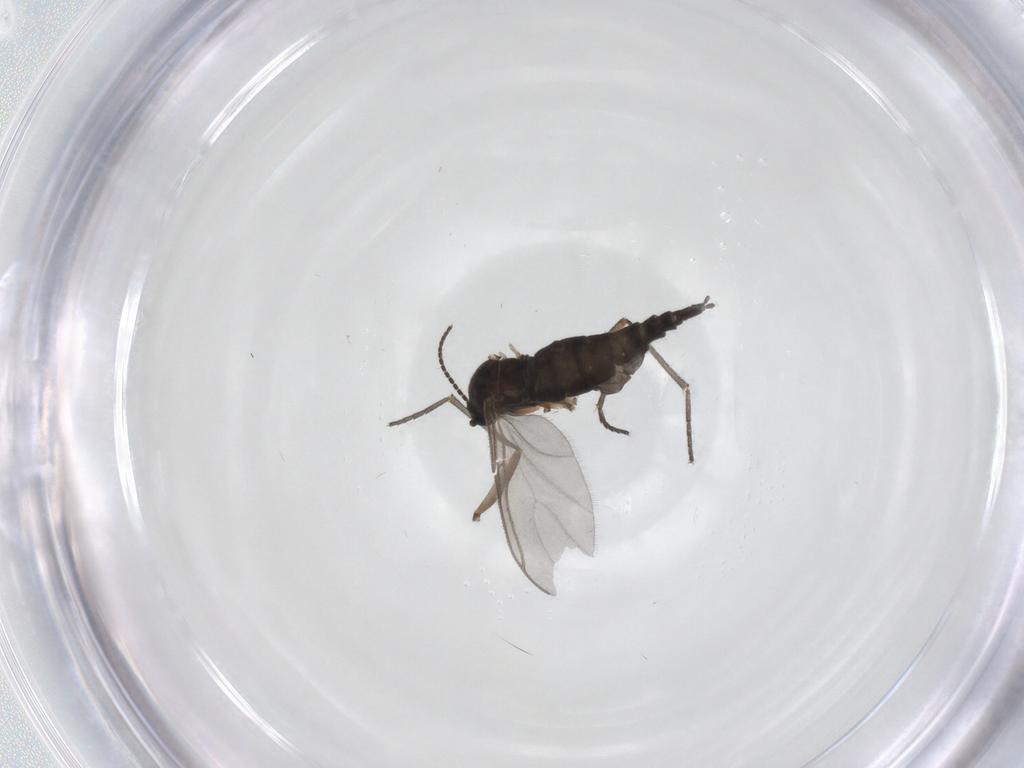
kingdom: Animalia
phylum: Arthropoda
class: Insecta
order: Diptera
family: Sciaridae
